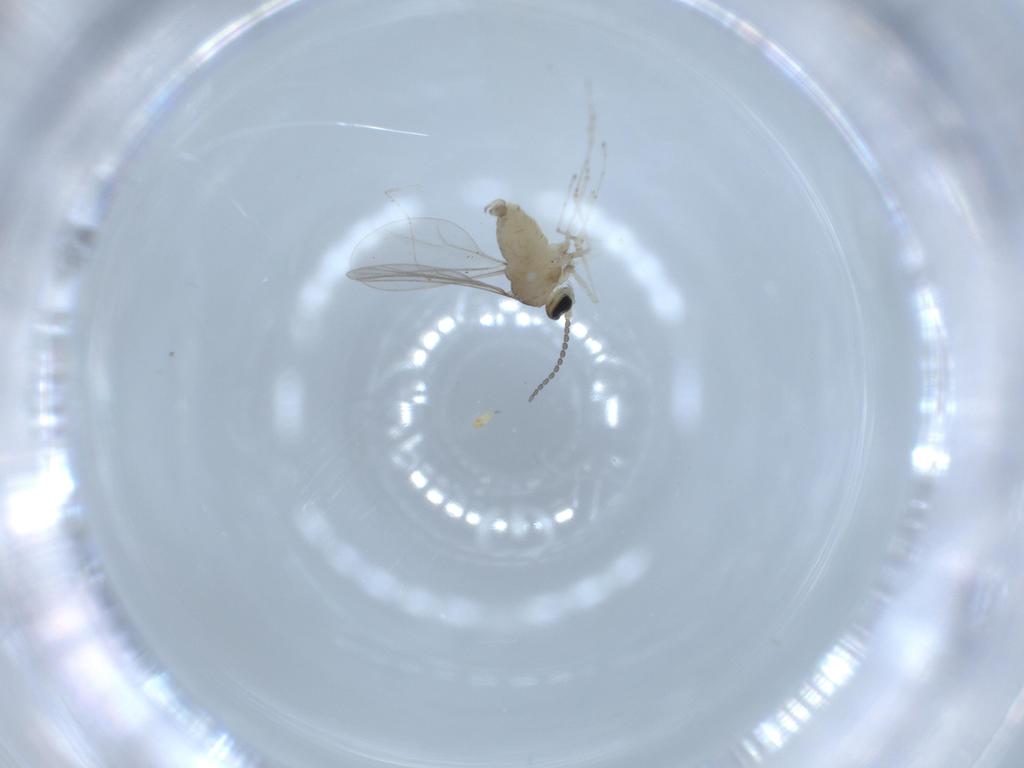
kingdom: Animalia
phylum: Arthropoda
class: Insecta
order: Diptera
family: Cecidomyiidae
